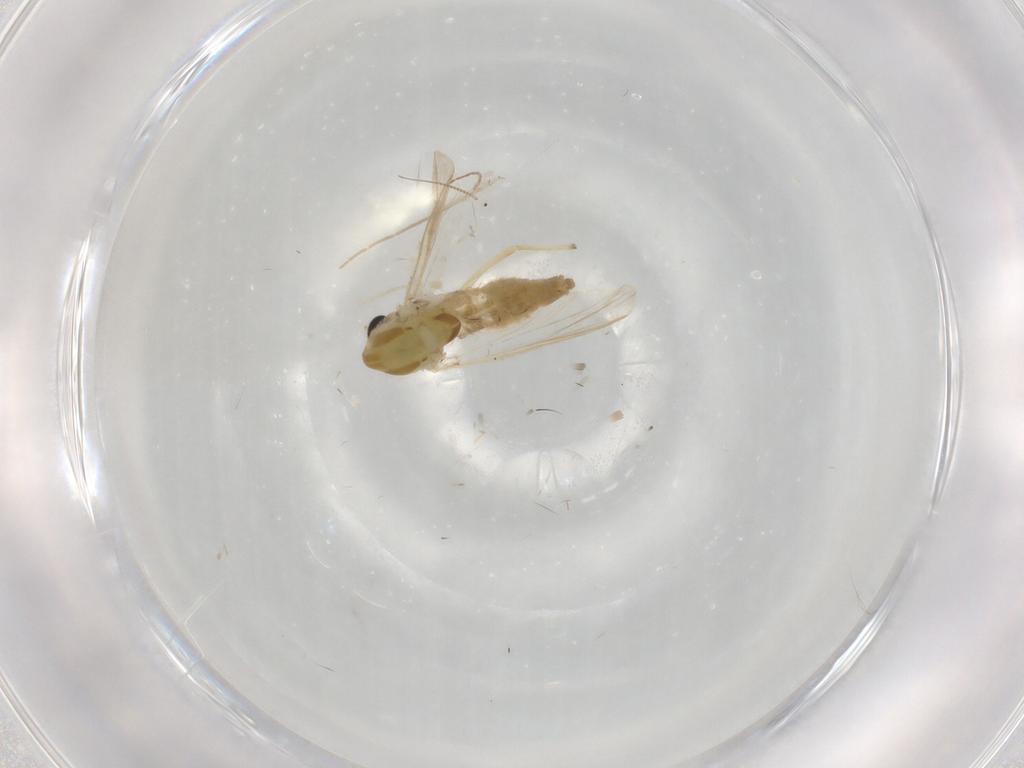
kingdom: Animalia
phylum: Arthropoda
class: Insecta
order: Diptera
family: Chironomidae
